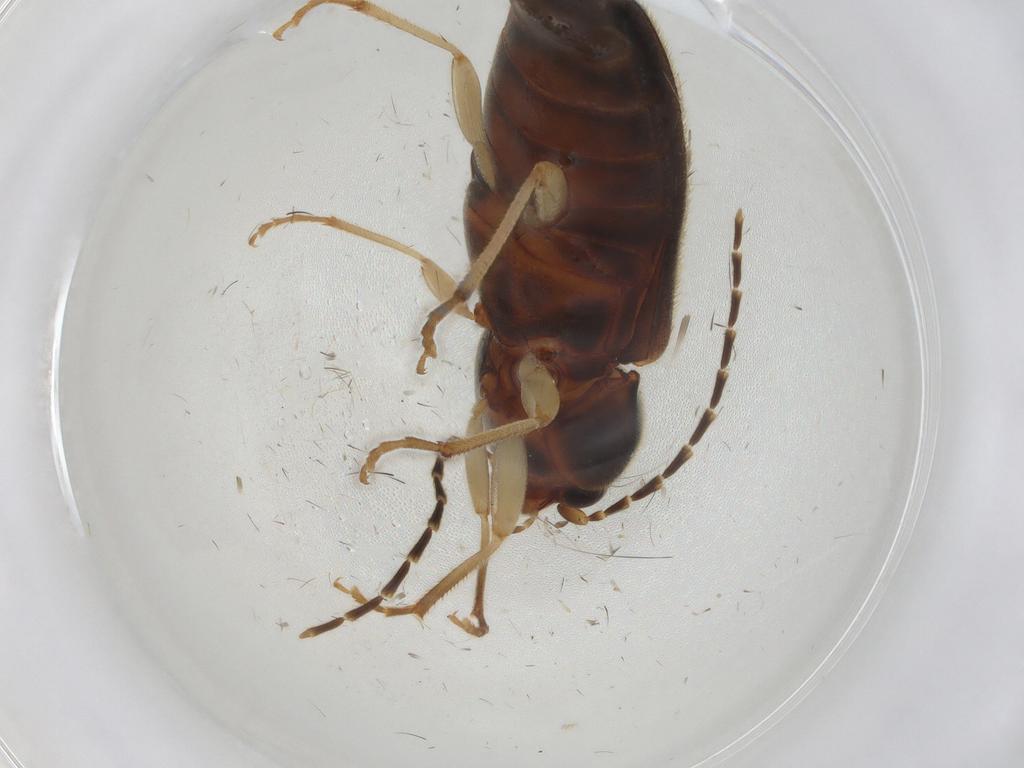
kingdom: Animalia
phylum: Arthropoda
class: Insecta
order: Coleoptera
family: Elateridae
